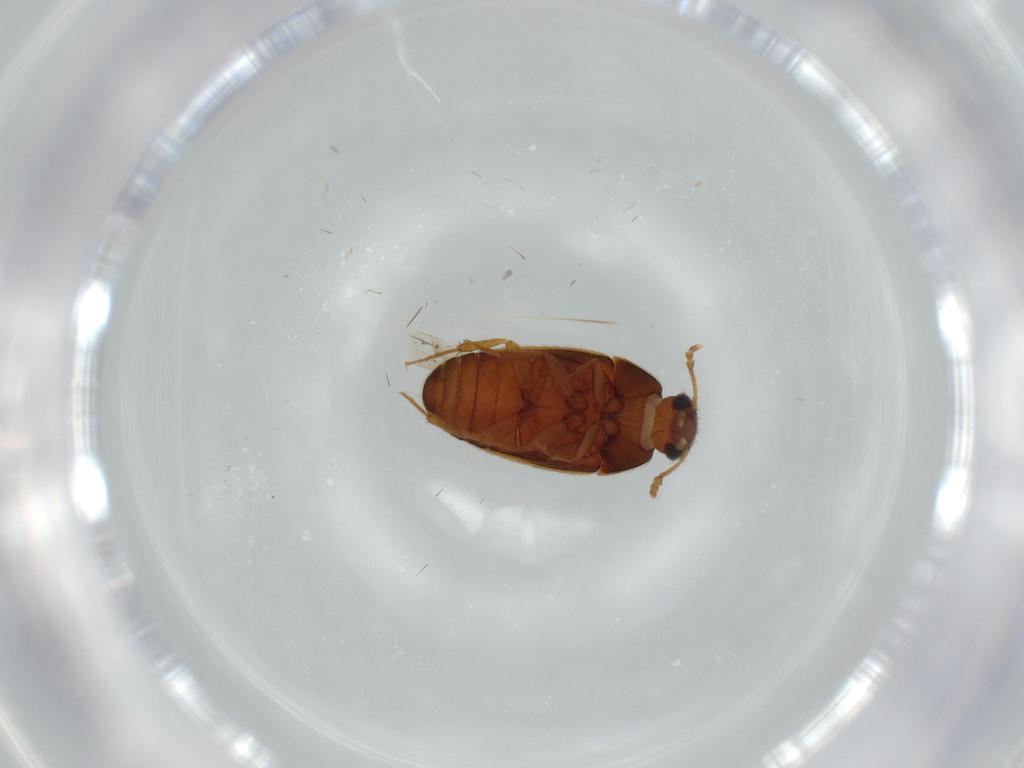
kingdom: Animalia
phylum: Arthropoda
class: Insecta
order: Coleoptera
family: Mycetophagidae
